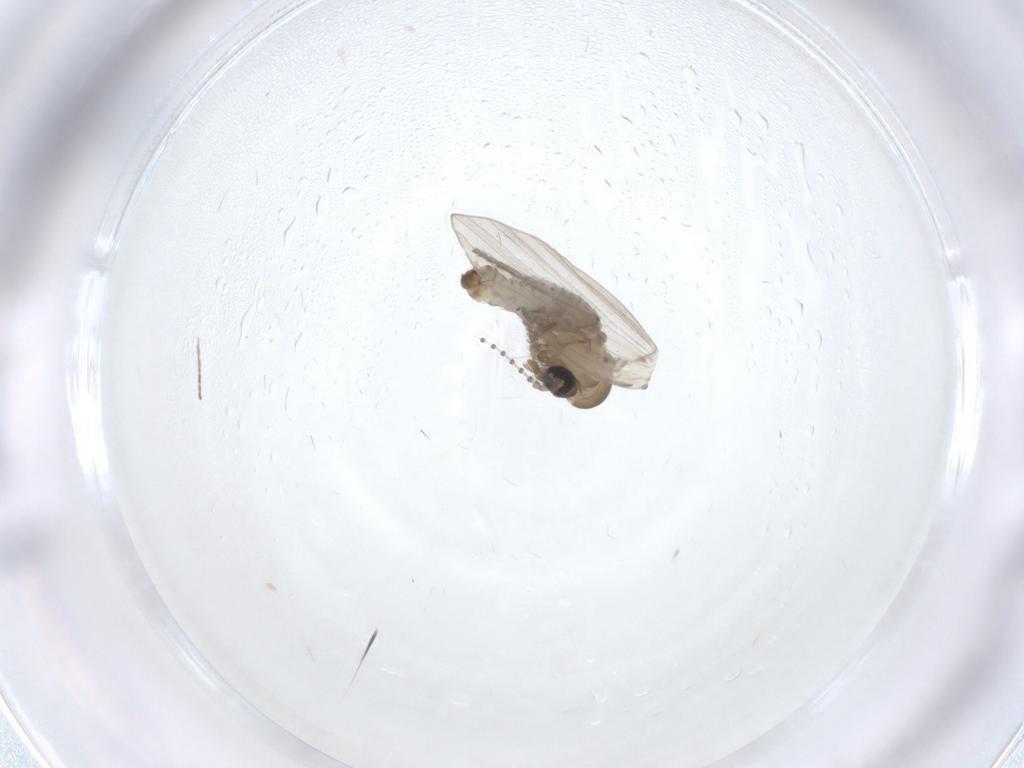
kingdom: Animalia
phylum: Arthropoda
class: Insecta
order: Diptera
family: Psychodidae
